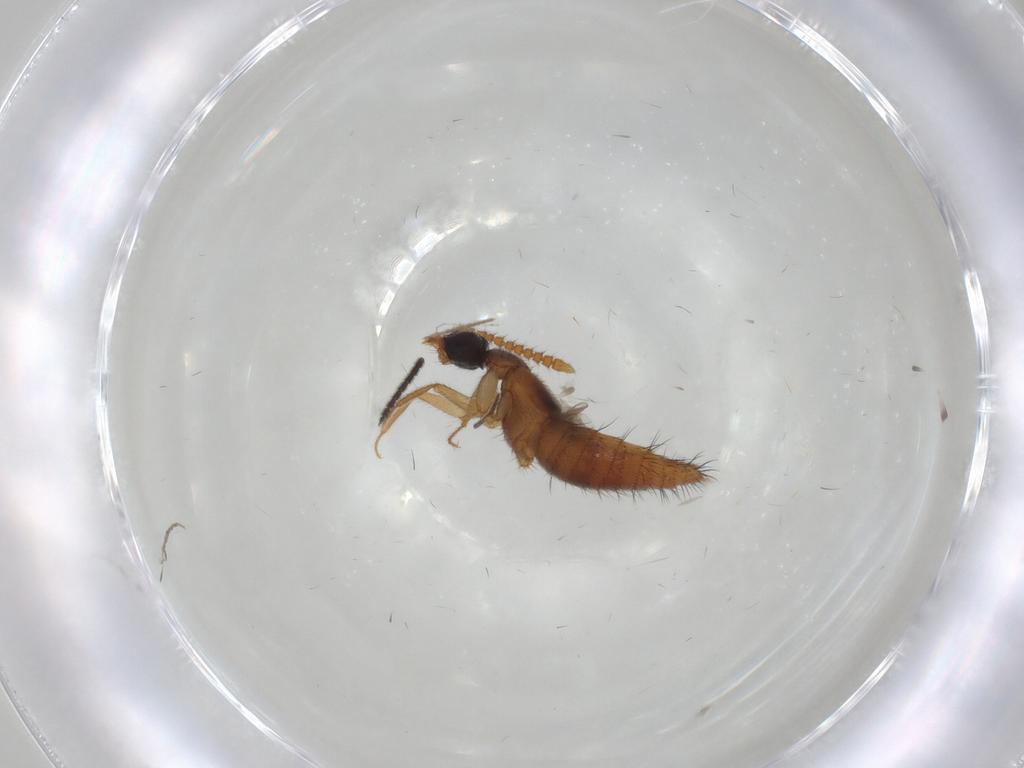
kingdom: Animalia
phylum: Arthropoda
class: Insecta
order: Coleoptera
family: Staphylinidae
